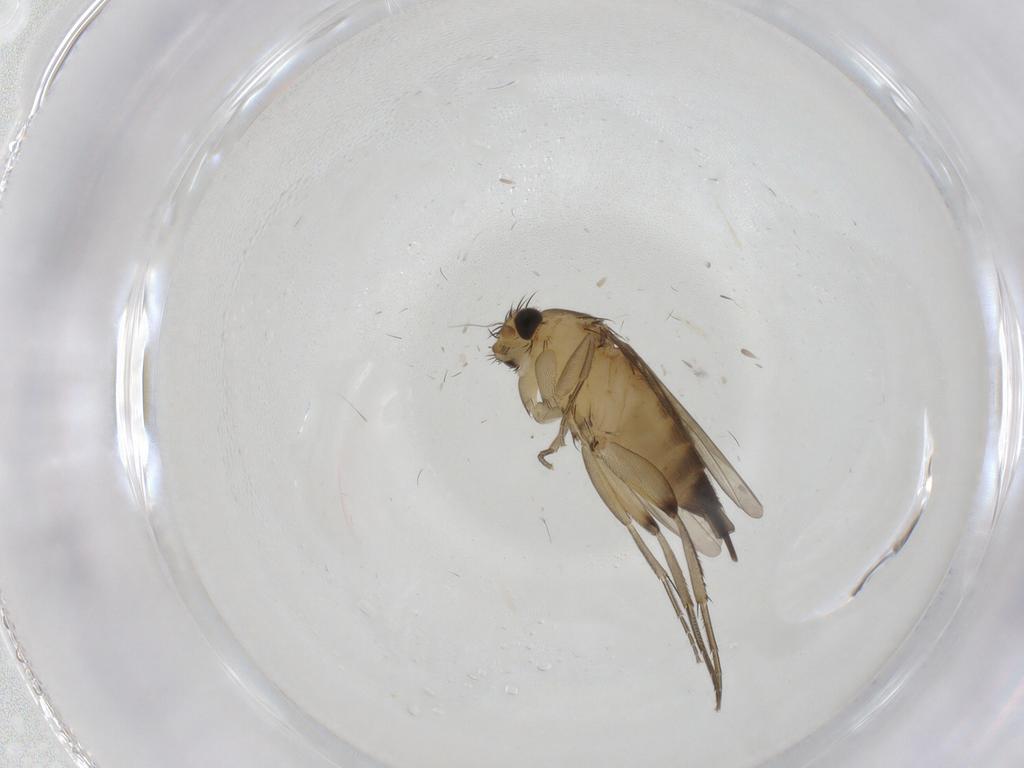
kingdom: Animalia
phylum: Arthropoda
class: Insecta
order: Diptera
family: Phoridae
